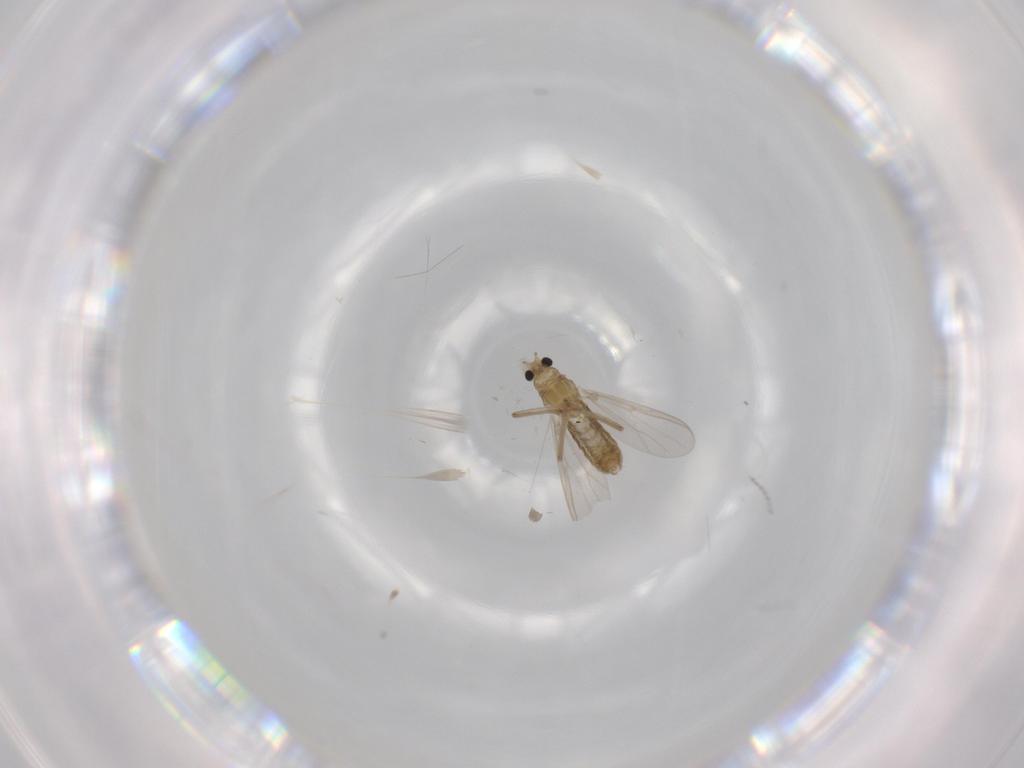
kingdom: Animalia
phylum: Arthropoda
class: Insecta
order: Diptera
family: Chironomidae
